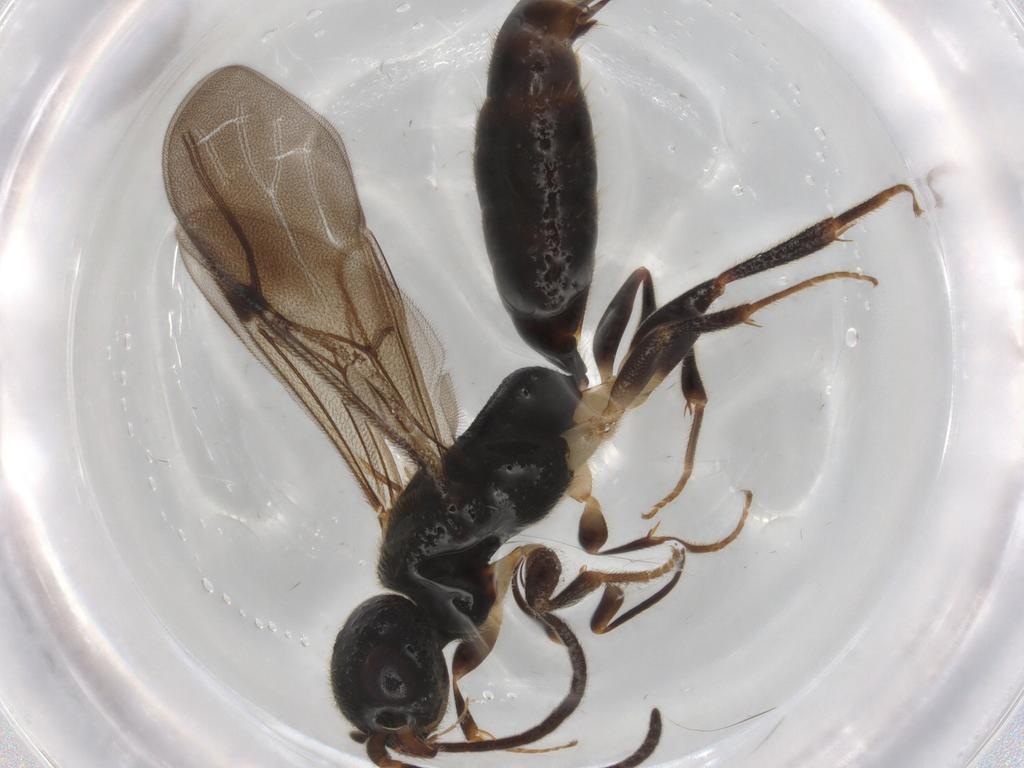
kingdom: Animalia
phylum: Arthropoda
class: Insecta
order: Hymenoptera
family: Bethylidae
